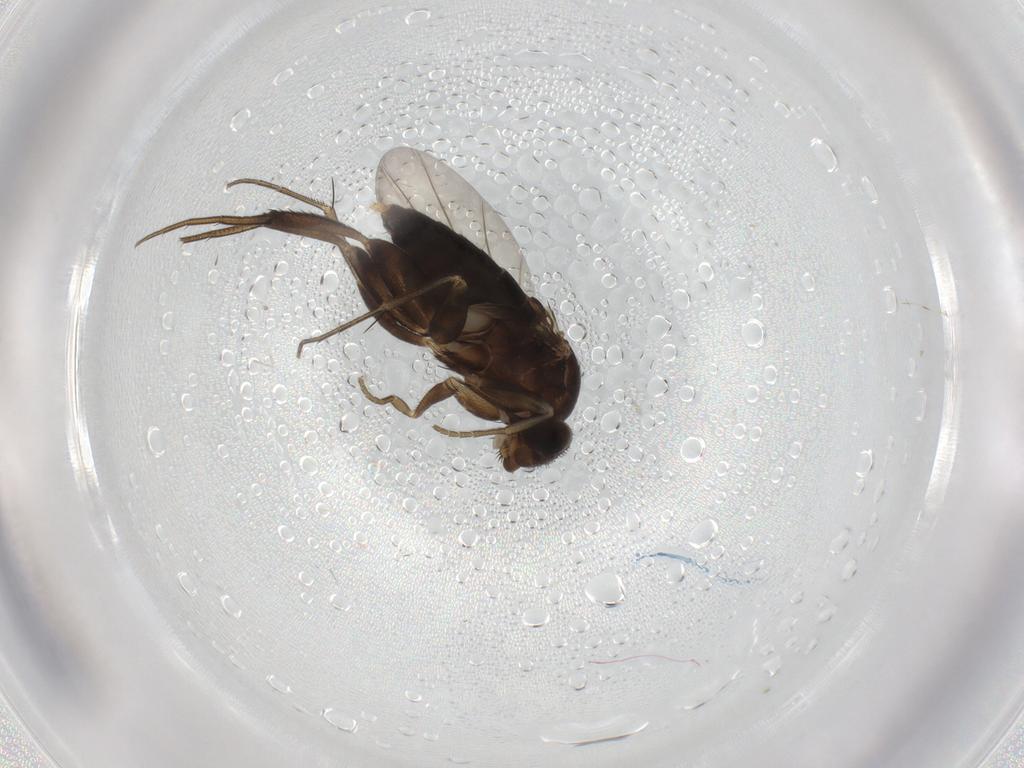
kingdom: Animalia
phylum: Arthropoda
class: Insecta
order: Diptera
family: Phoridae
